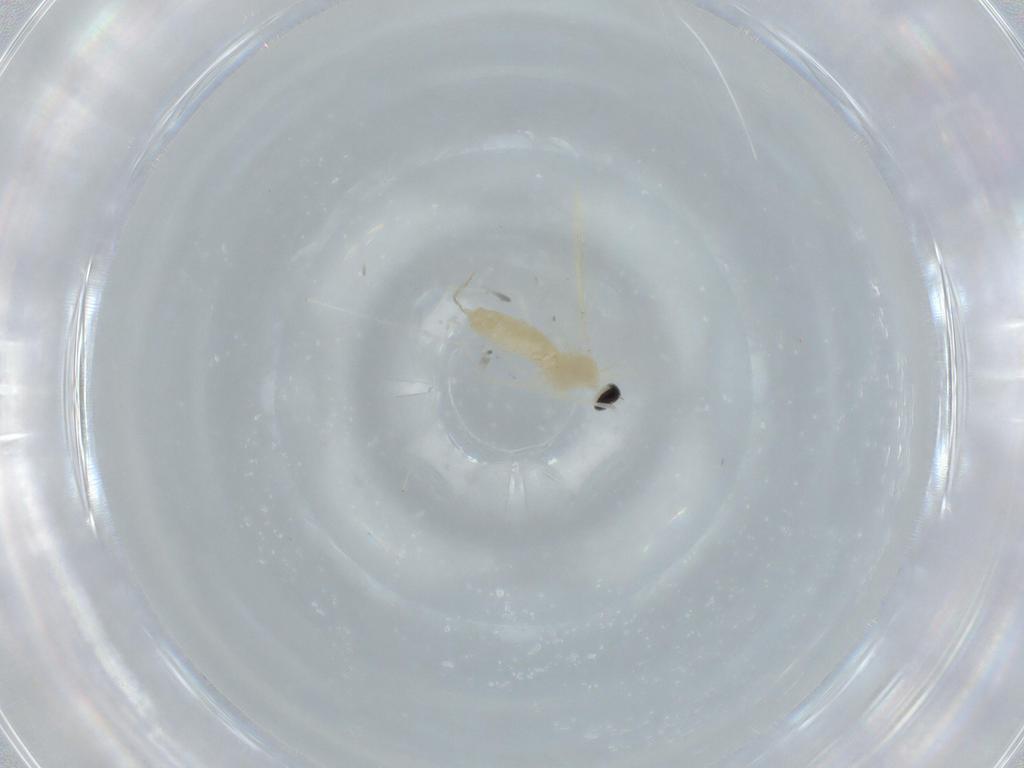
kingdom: Animalia
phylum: Arthropoda
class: Insecta
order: Diptera
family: Cecidomyiidae
